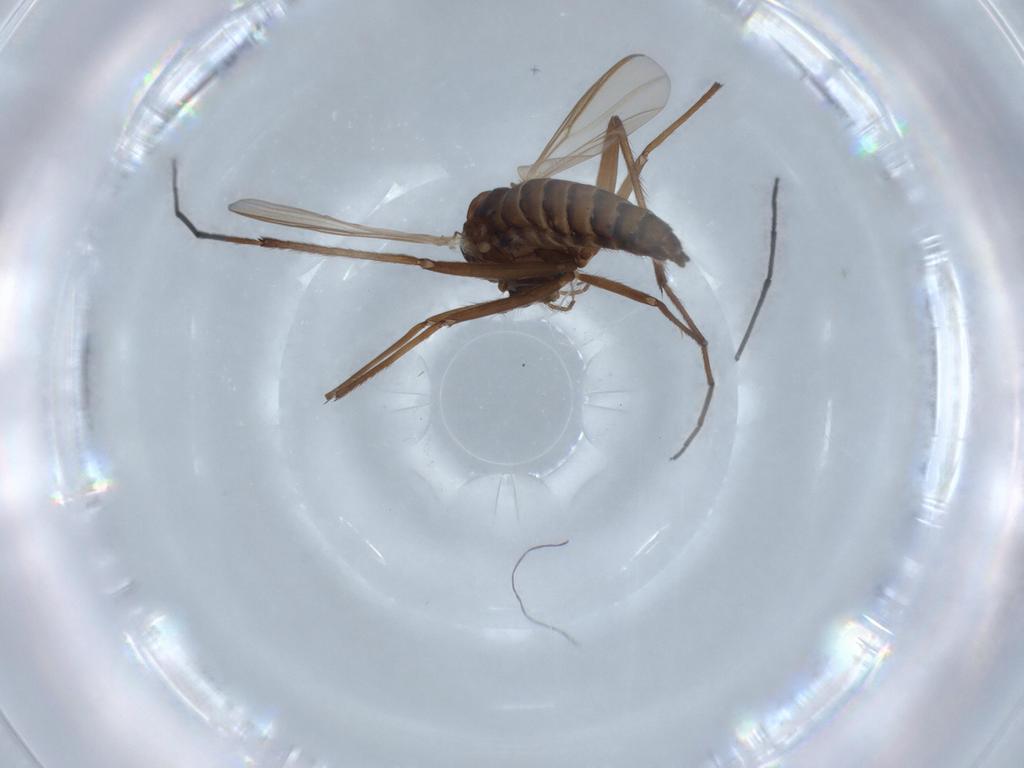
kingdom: Animalia
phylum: Arthropoda
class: Insecta
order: Diptera
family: Chironomidae
